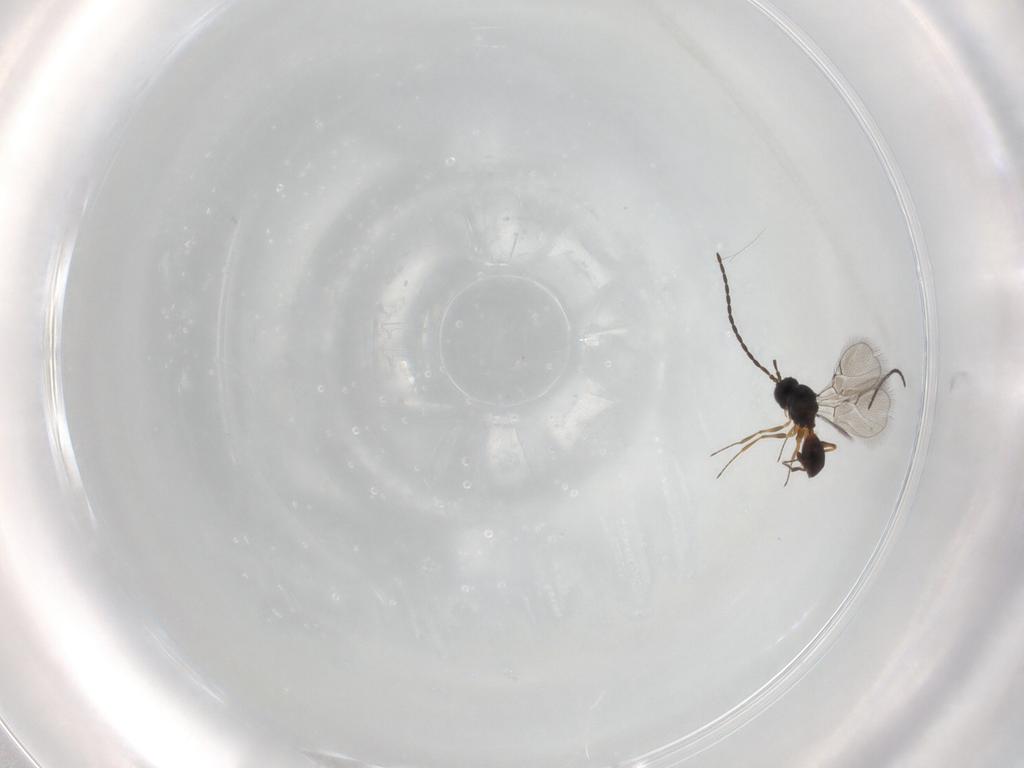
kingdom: Animalia
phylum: Arthropoda
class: Insecta
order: Hymenoptera
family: Figitidae
